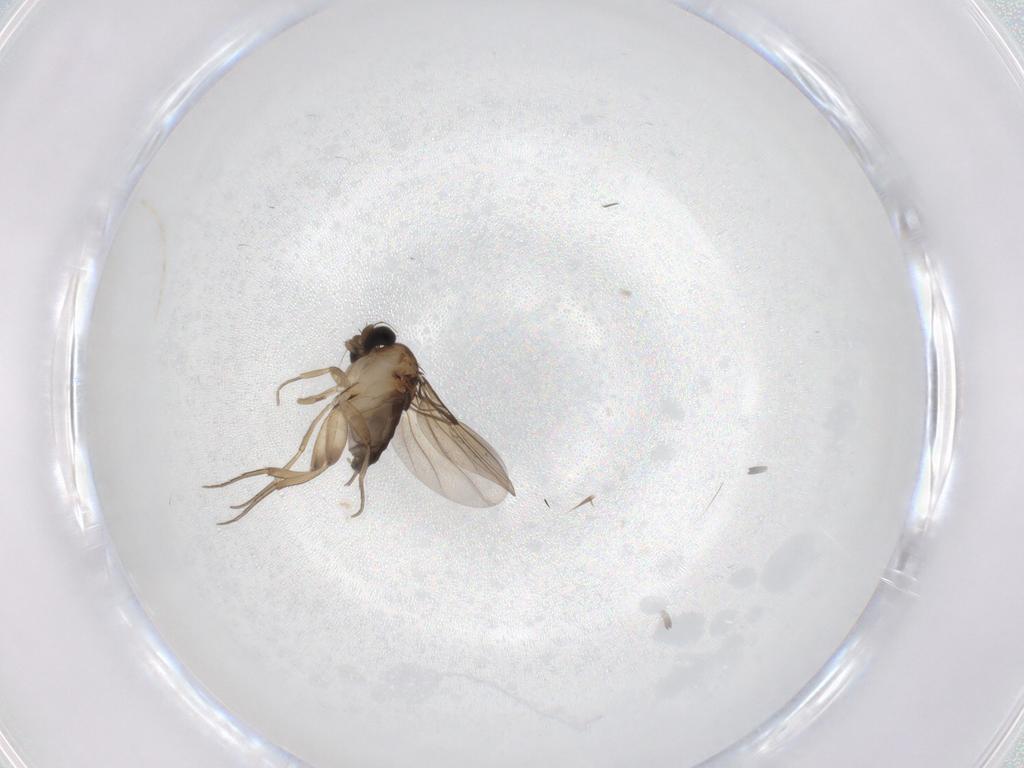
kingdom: Animalia
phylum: Arthropoda
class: Insecta
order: Diptera
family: Phoridae
